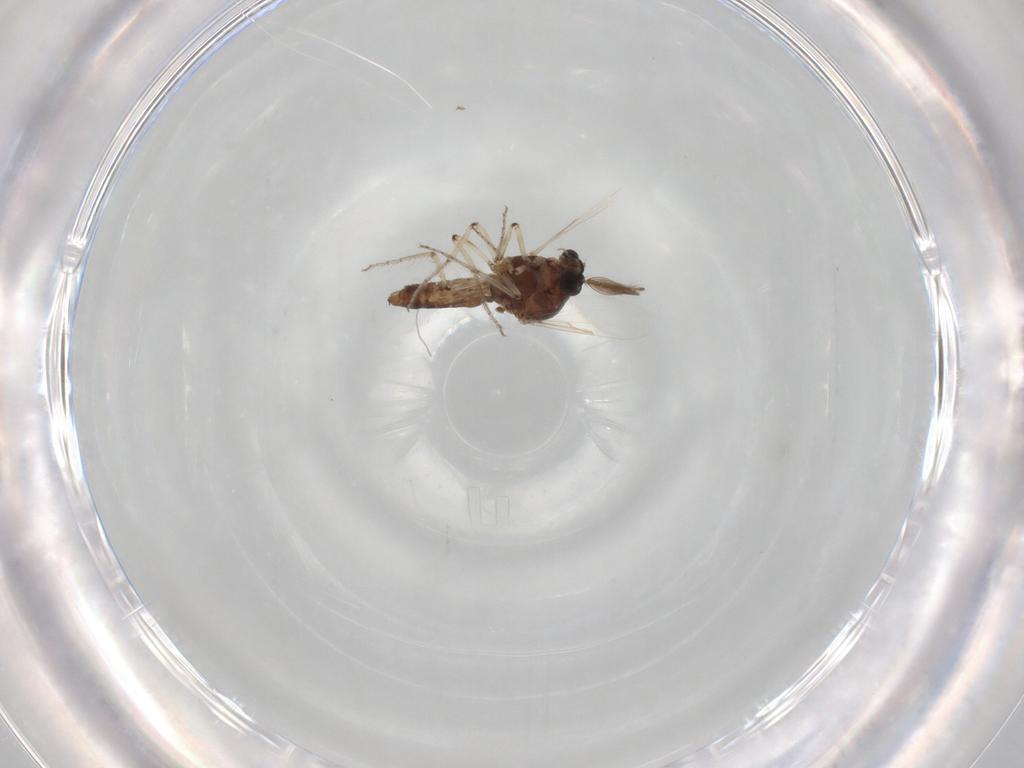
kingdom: Animalia
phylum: Arthropoda
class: Insecta
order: Diptera
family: Ceratopogonidae
